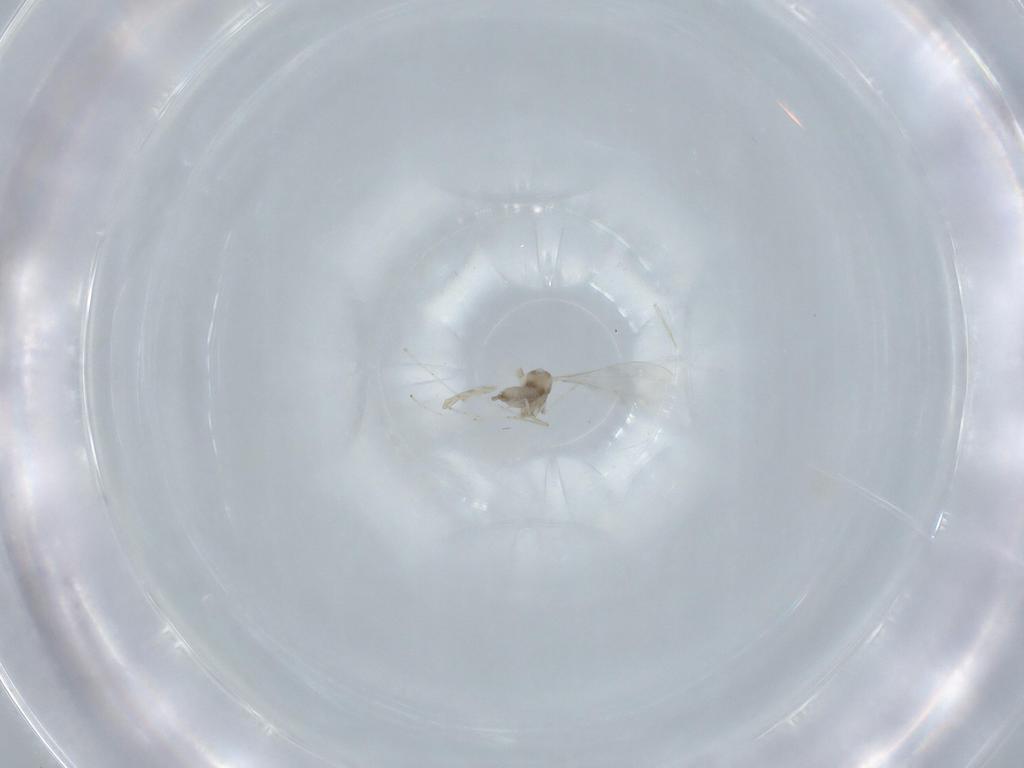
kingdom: Animalia
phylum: Arthropoda
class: Insecta
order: Diptera
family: Cecidomyiidae
